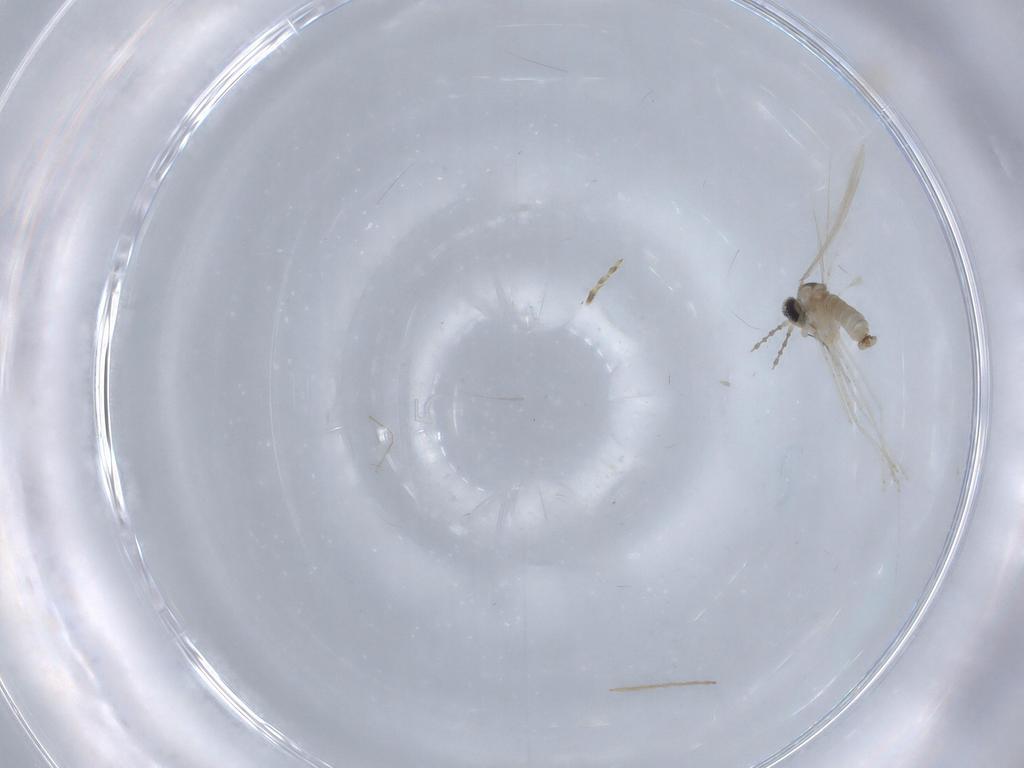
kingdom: Animalia
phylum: Arthropoda
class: Insecta
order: Diptera
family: Cecidomyiidae
